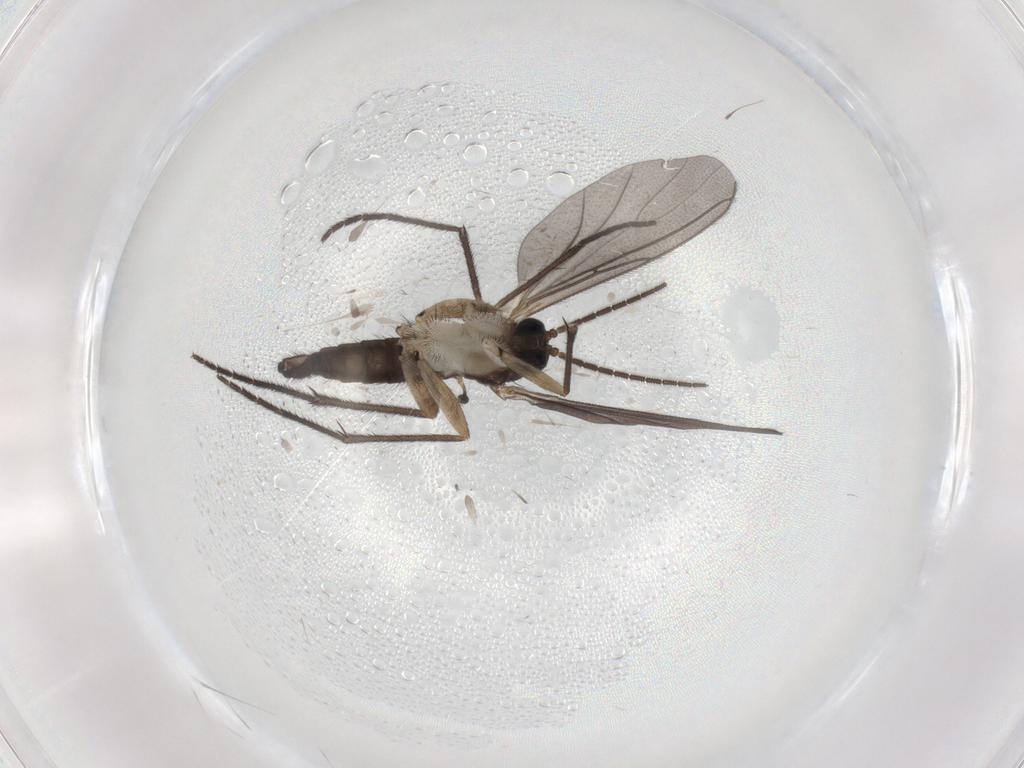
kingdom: Animalia
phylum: Arthropoda
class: Insecta
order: Diptera
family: Sciaridae
